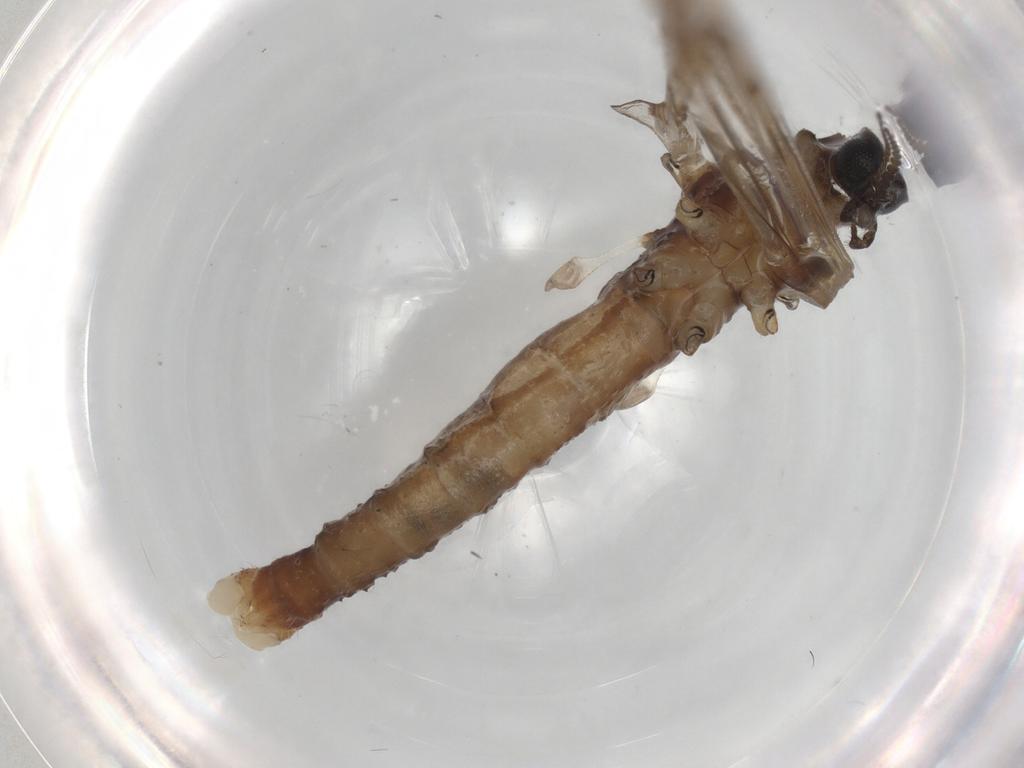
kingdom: Animalia
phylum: Arthropoda
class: Insecta
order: Diptera
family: Phoridae
